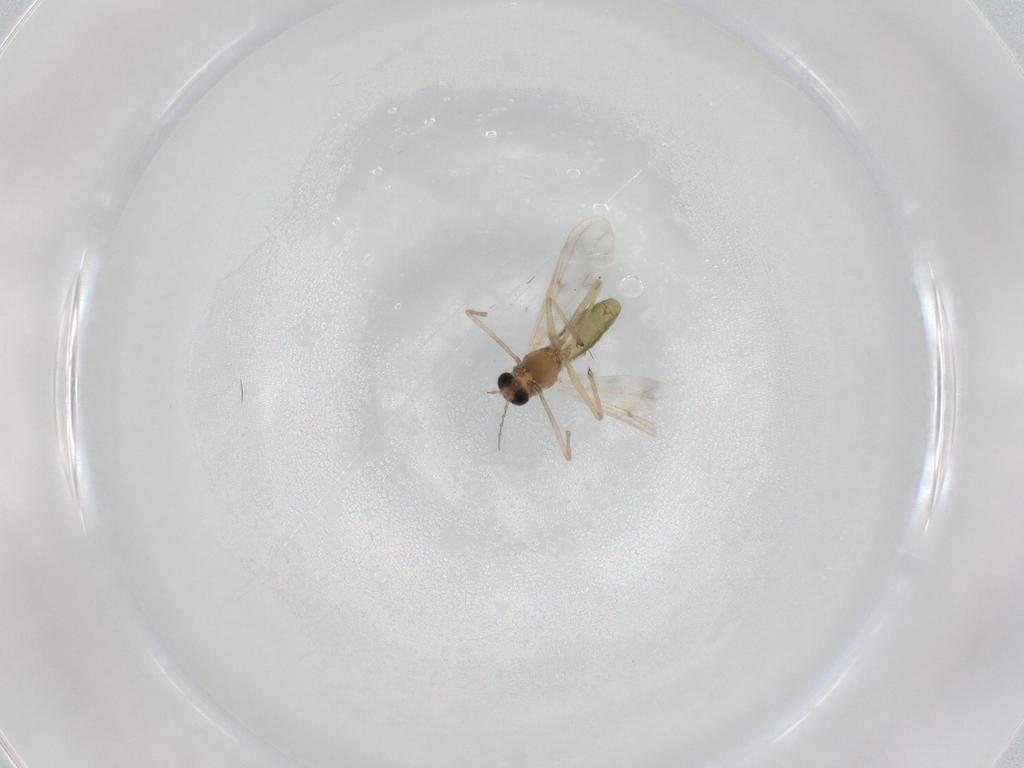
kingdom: Animalia
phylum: Arthropoda
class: Insecta
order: Diptera
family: Chironomidae
